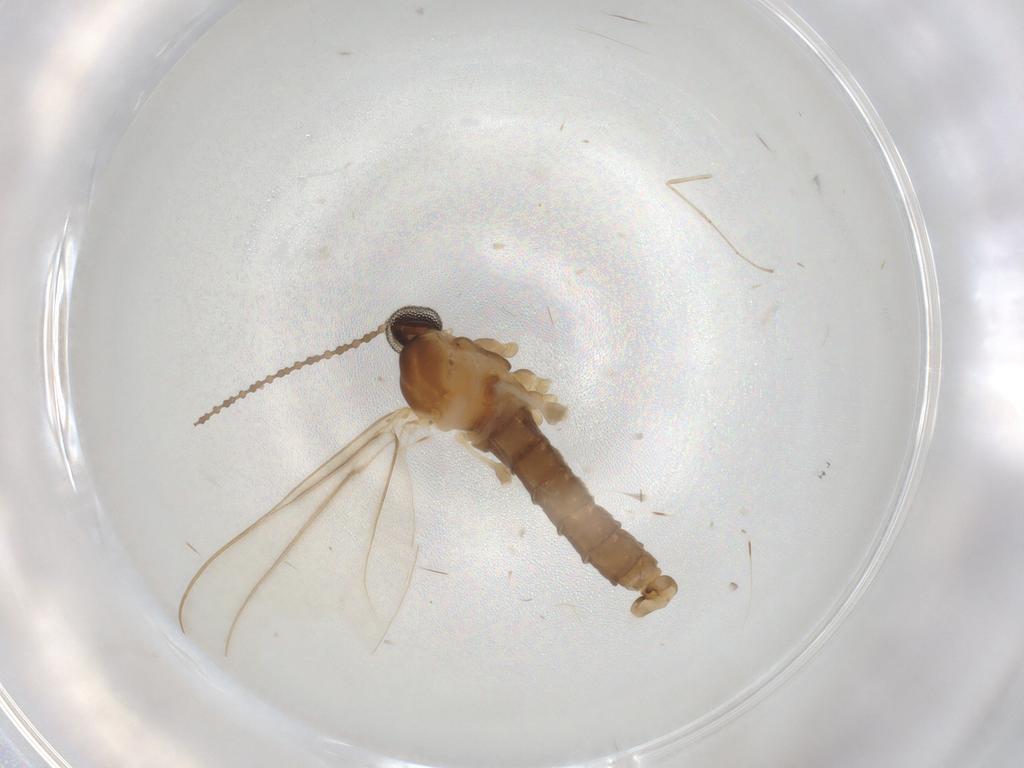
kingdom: Animalia
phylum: Arthropoda
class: Insecta
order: Diptera
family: Cecidomyiidae
